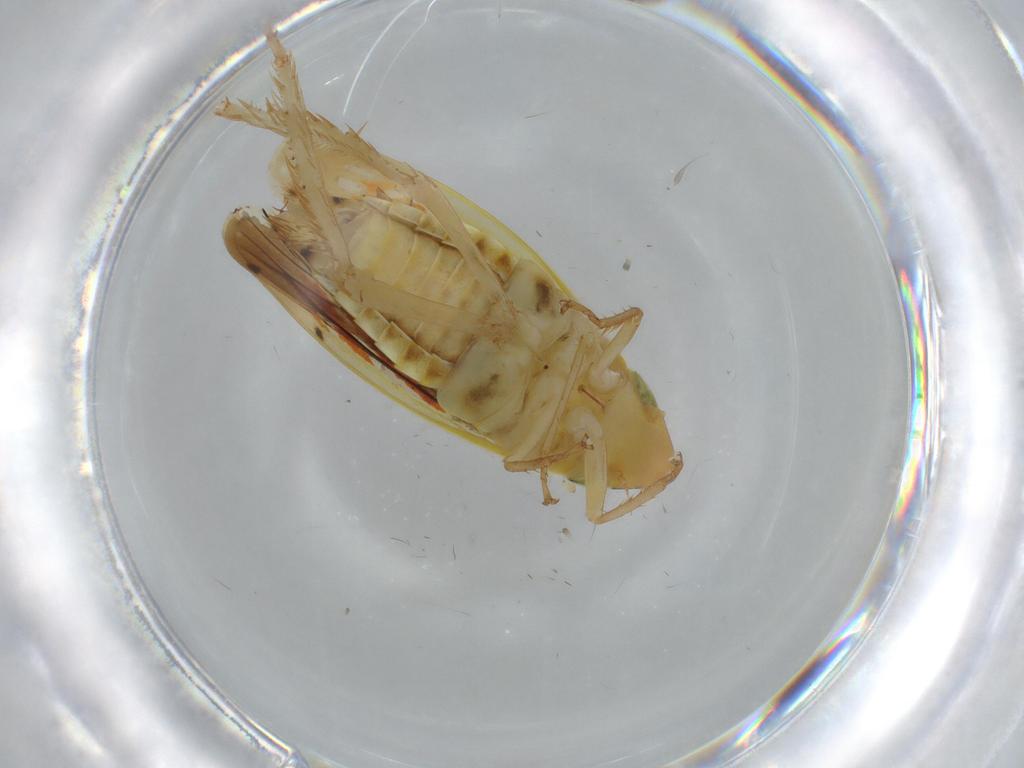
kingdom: Animalia
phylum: Arthropoda
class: Insecta
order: Hemiptera
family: Cicadellidae
